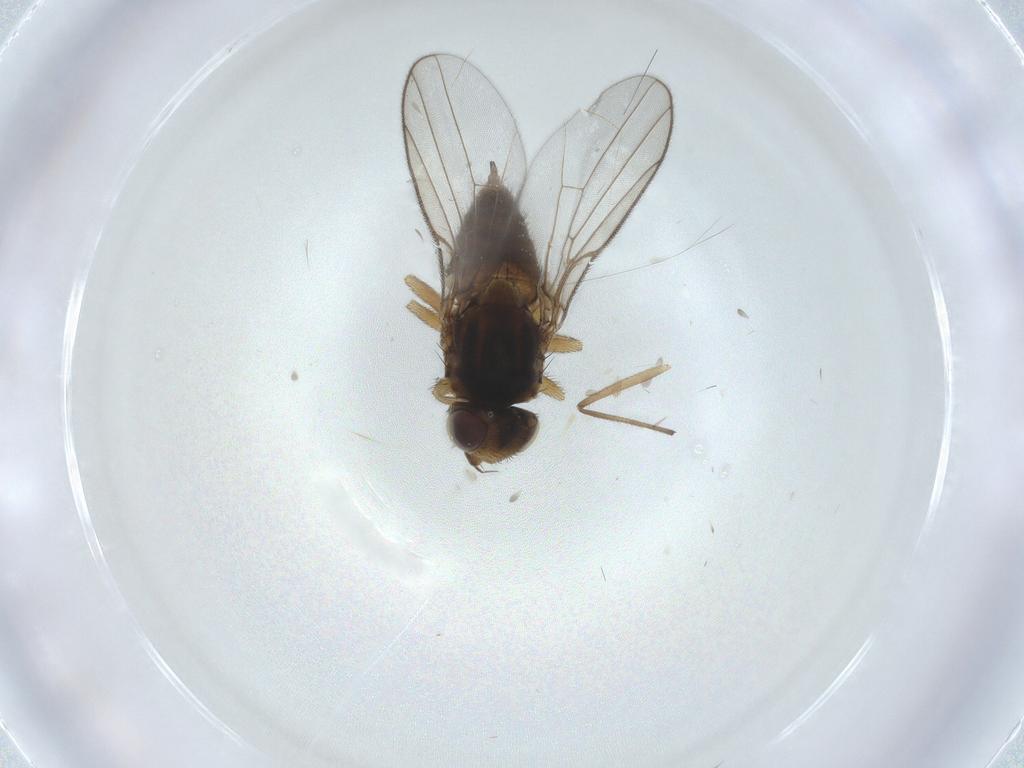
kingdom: Animalia
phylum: Arthropoda
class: Insecta
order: Diptera
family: Chloropidae
